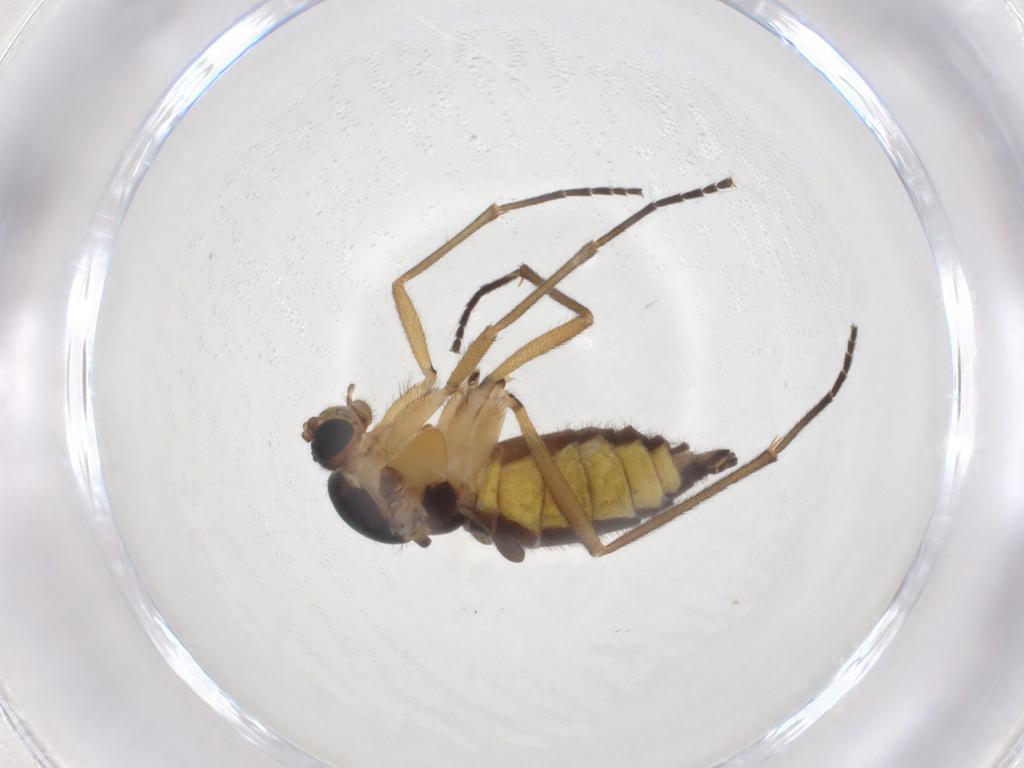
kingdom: Animalia
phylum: Arthropoda
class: Insecta
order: Diptera
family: Sciaridae
